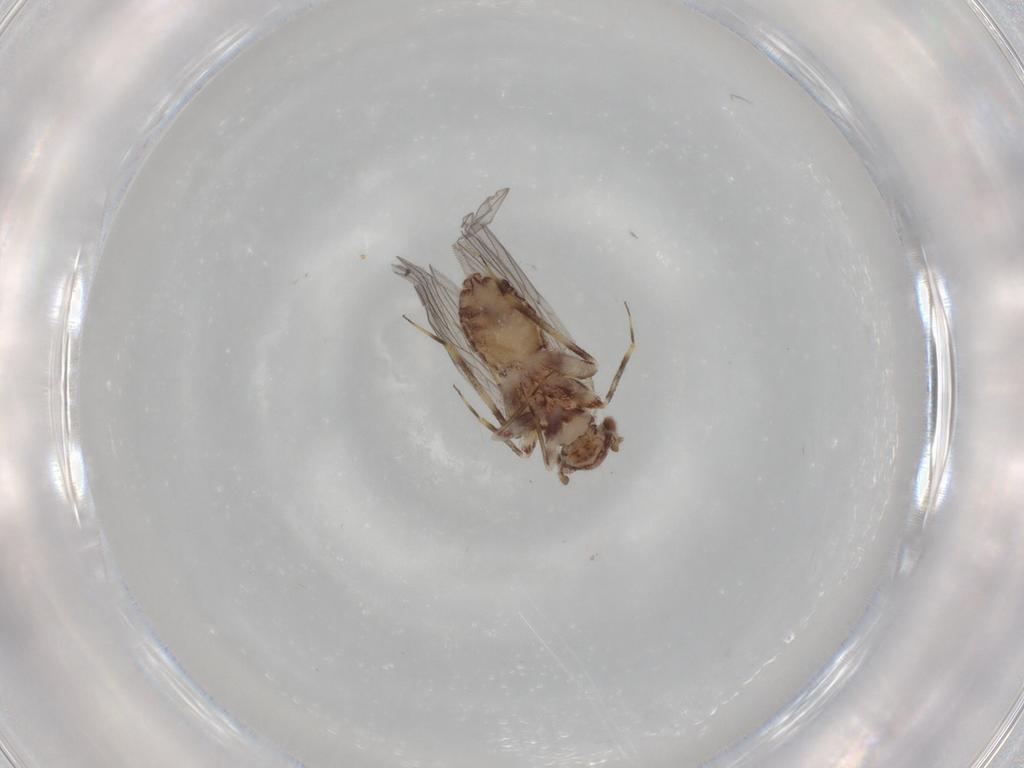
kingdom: Animalia
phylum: Arthropoda
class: Insecta
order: Psocodea
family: Lepidopsocidae
